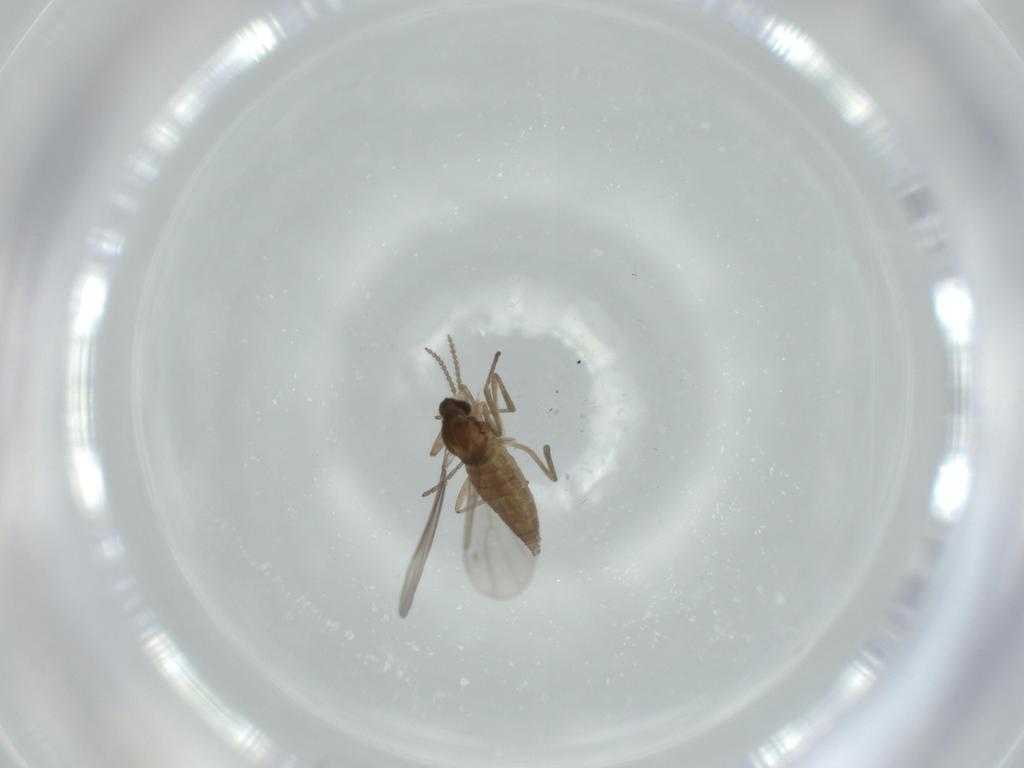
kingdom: Animalia
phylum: Arthropoda
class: Insecta
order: Diptera
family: Cecidomyiidae
